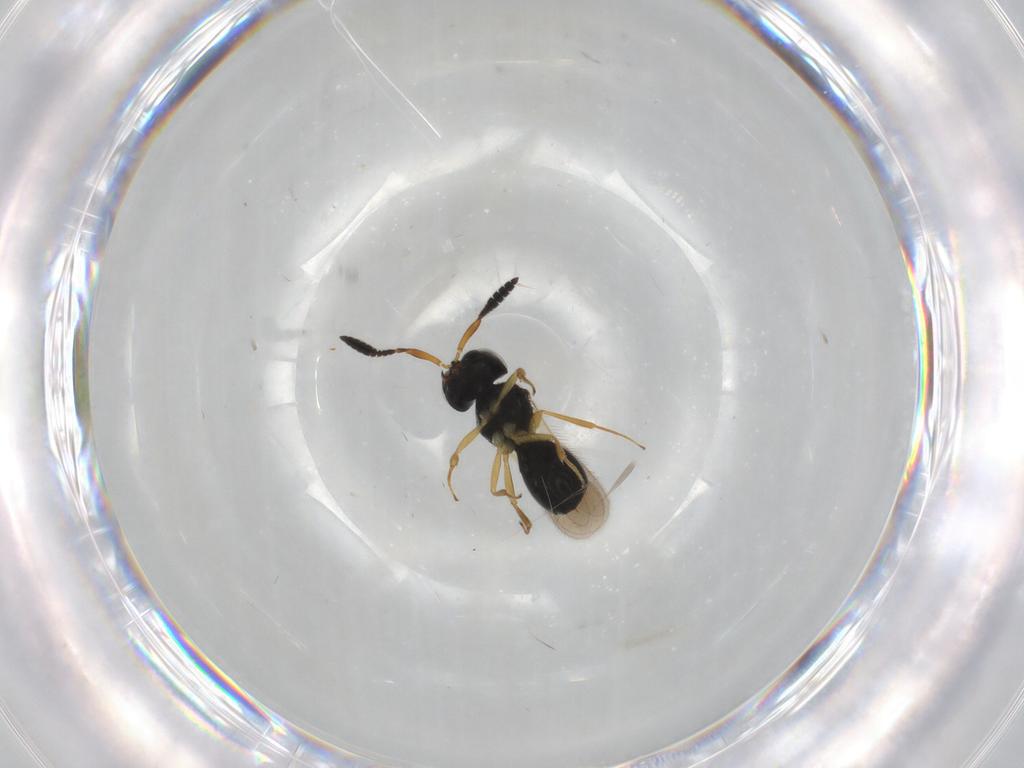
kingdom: Animalia
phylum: Arthropoda
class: Insecta
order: Hymenoptera
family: Scelionidae
